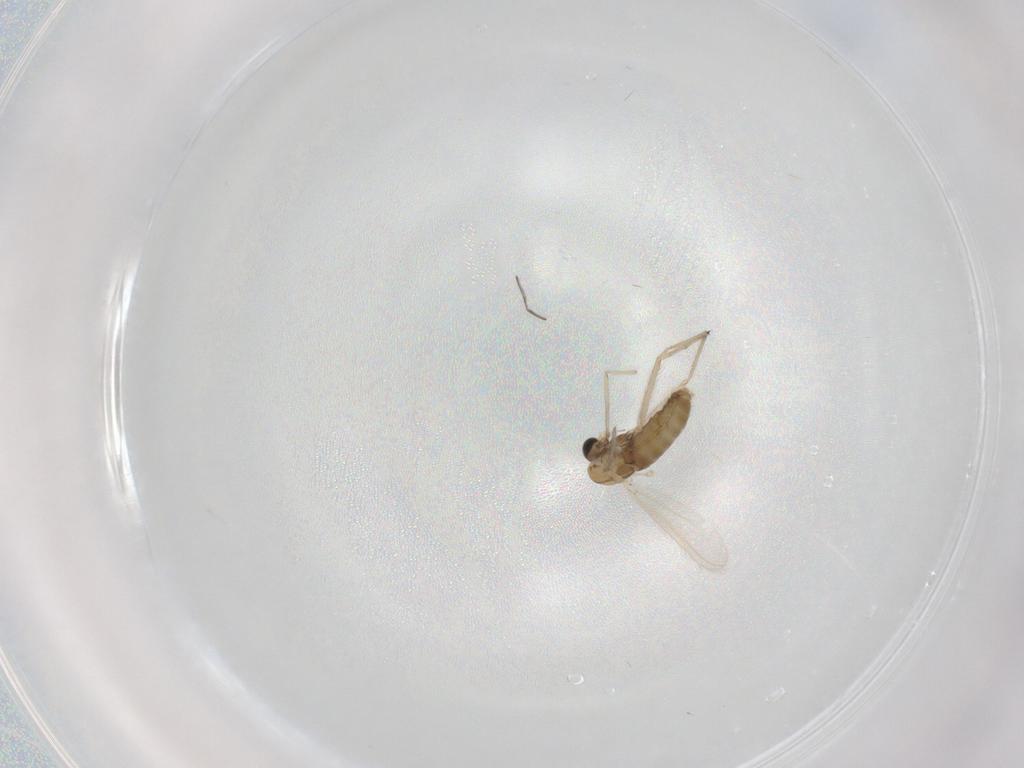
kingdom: Animalia
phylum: Arthropoda
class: Insecta
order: Diptera
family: Chironomidae
